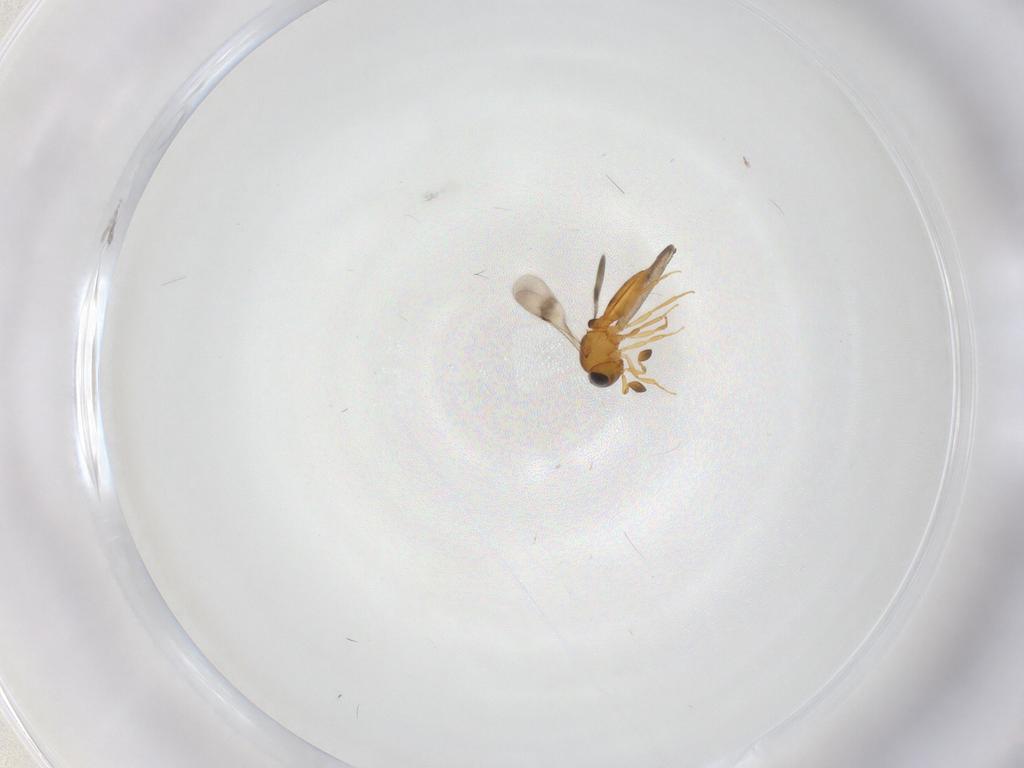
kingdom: Animalia
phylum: Arthropoda
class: Insecta
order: Hymenoptera
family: Scelionidae
